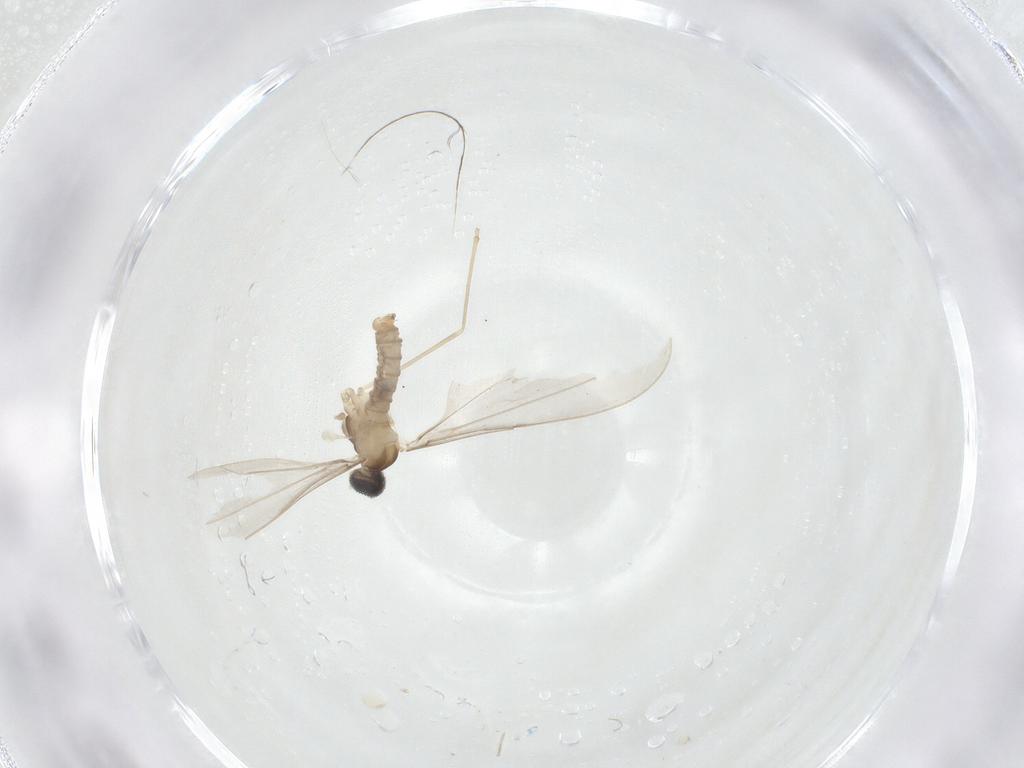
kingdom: Animalia
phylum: Arthropoda
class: Insecta
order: Diptera
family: Cecidomyiidae
